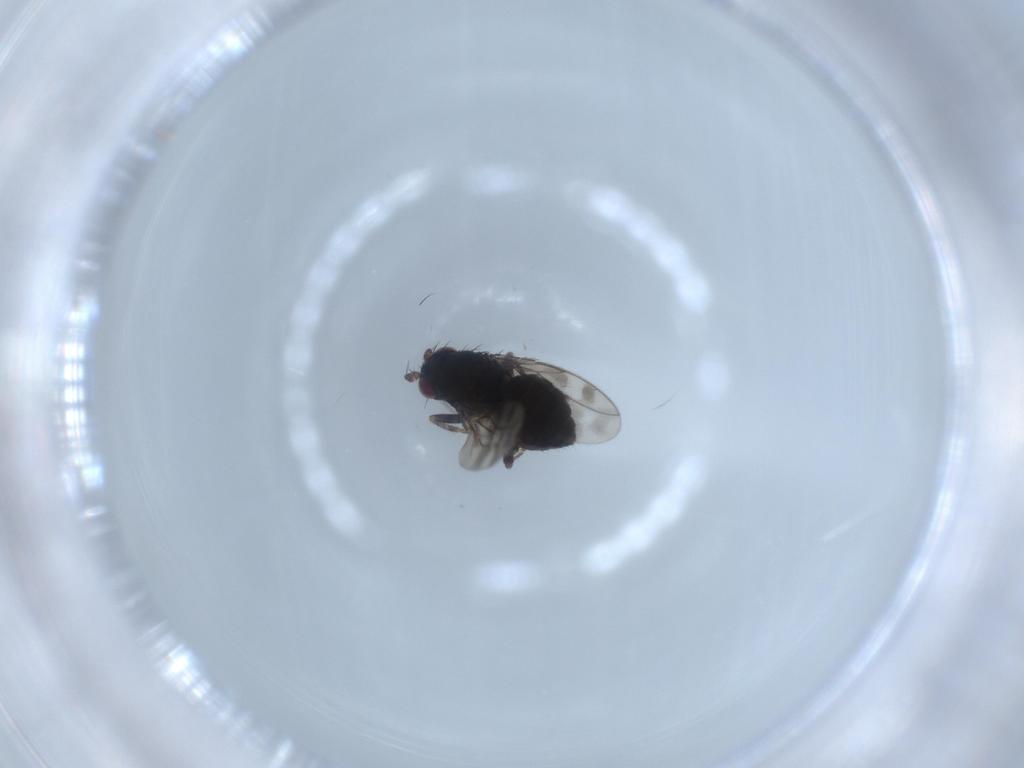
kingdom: Animalia
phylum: Arthropoda
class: Insecta
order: Diptera
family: Sphaeroceridae
